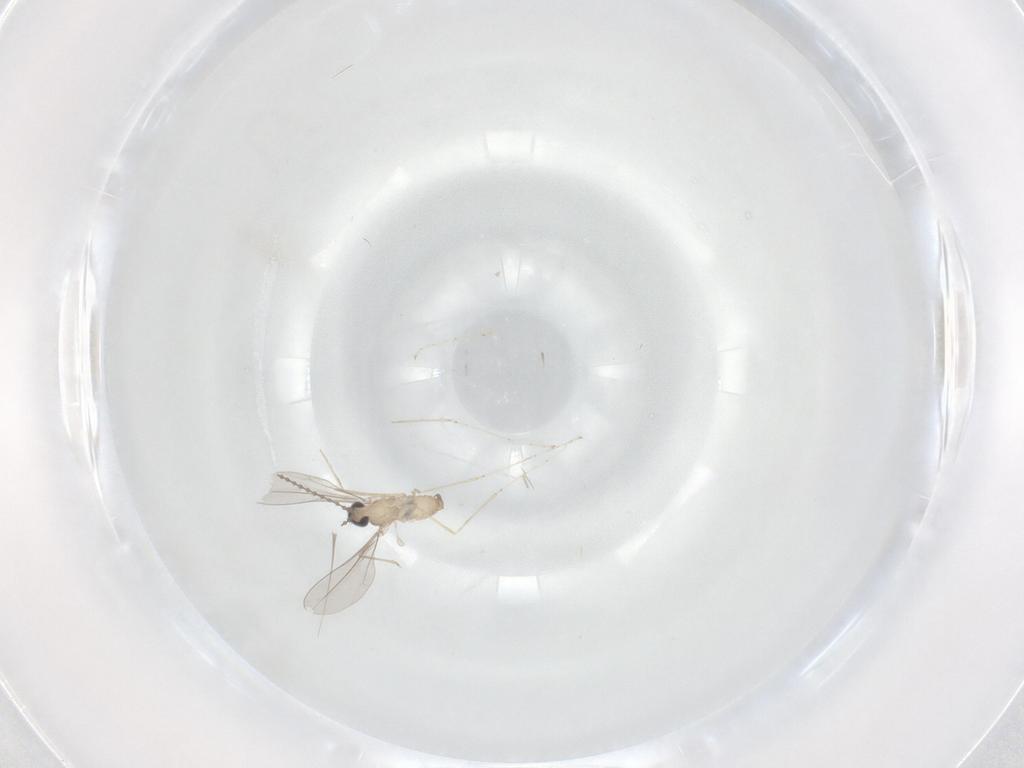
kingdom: Animalia
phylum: Arthropoda
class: Insecta
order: Diptera
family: Cecidomyiidae
